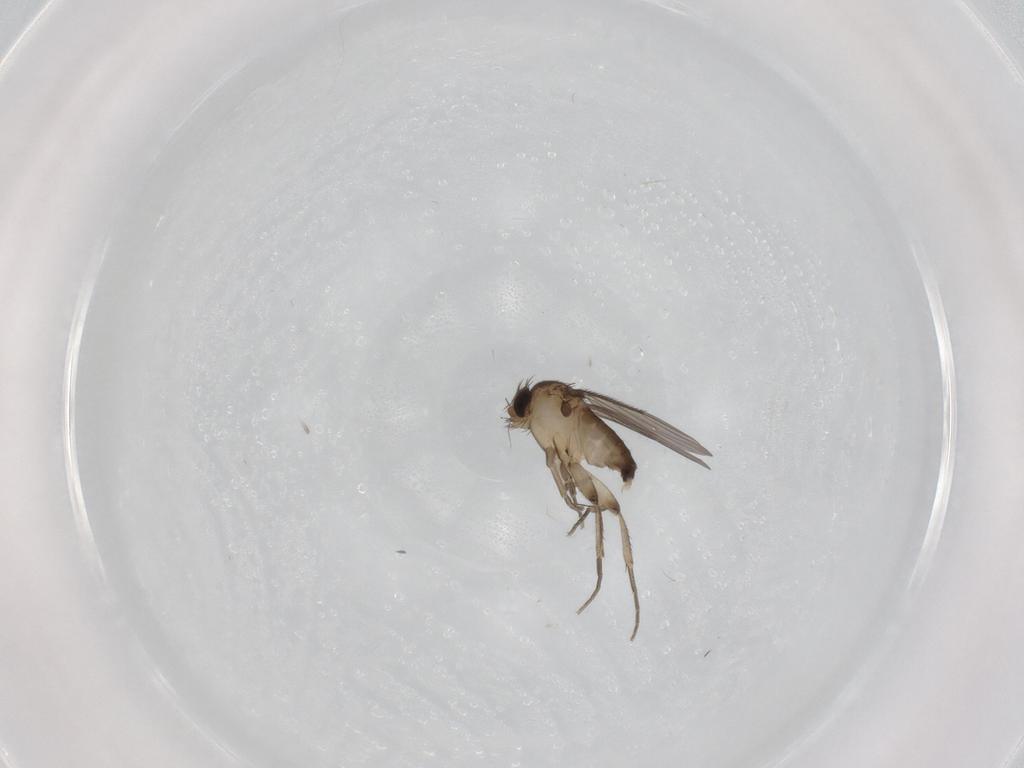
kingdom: Animalia
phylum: Arthropoda
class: Insecta
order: Diptera
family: Phoridae
